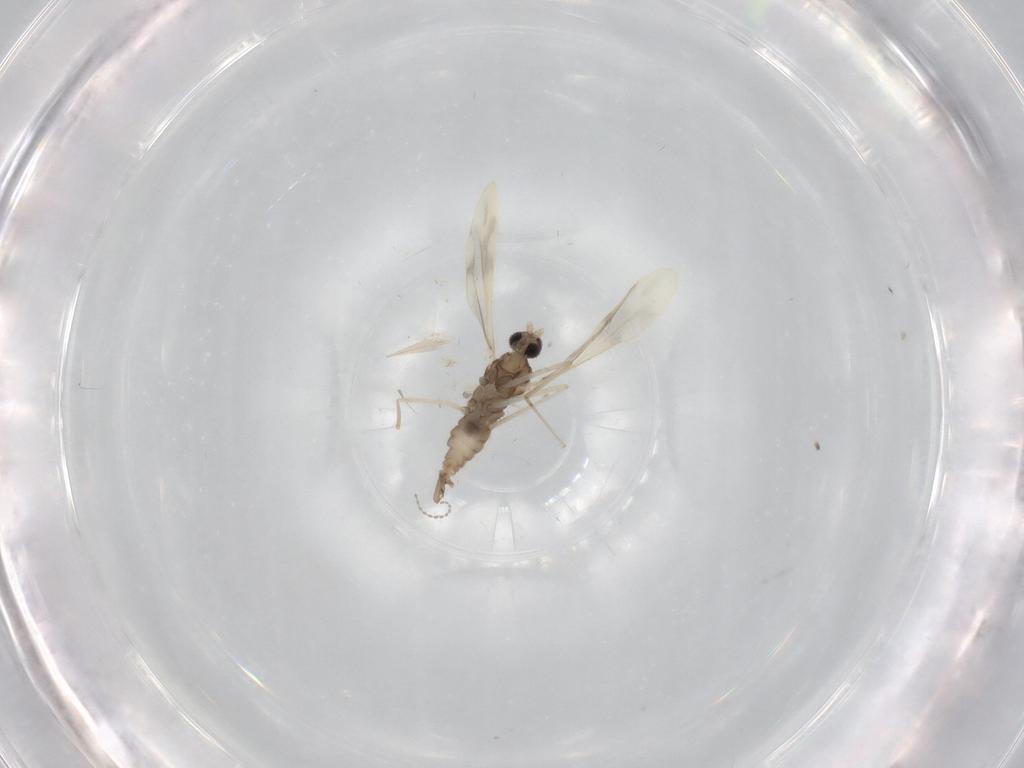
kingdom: Animalia
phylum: Arthropoda
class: Insecta
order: Diptera
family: Cecidomyiidae
